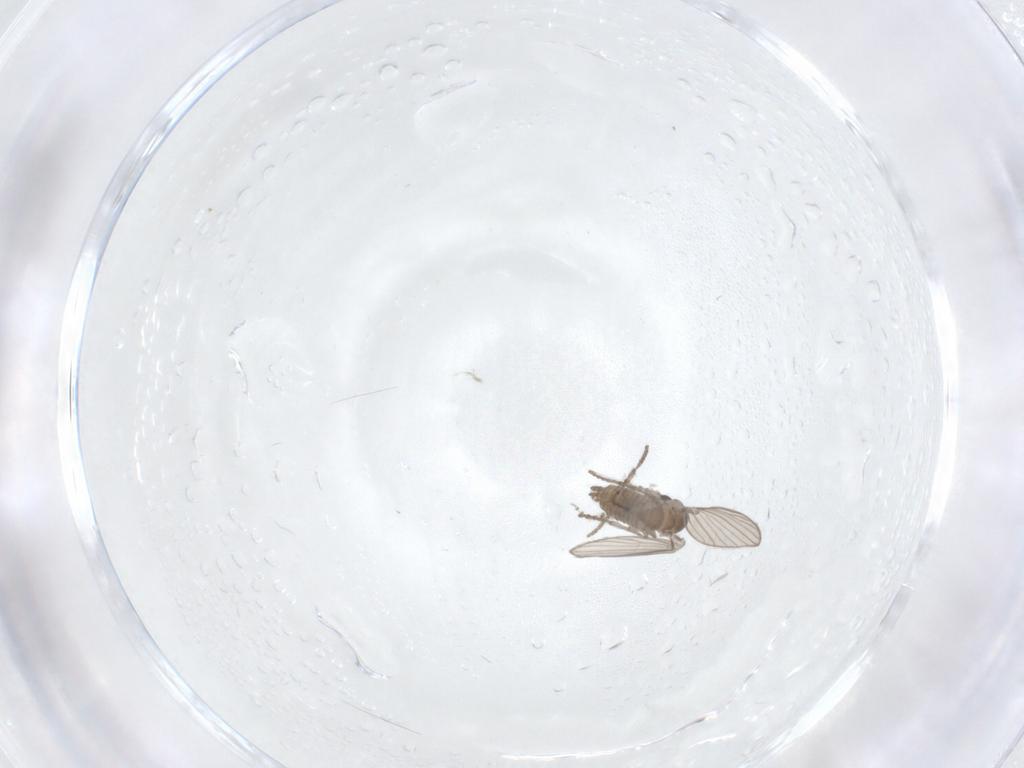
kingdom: Animalia
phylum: Arthropoda
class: Insecta
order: Diptera
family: Psychodidae
